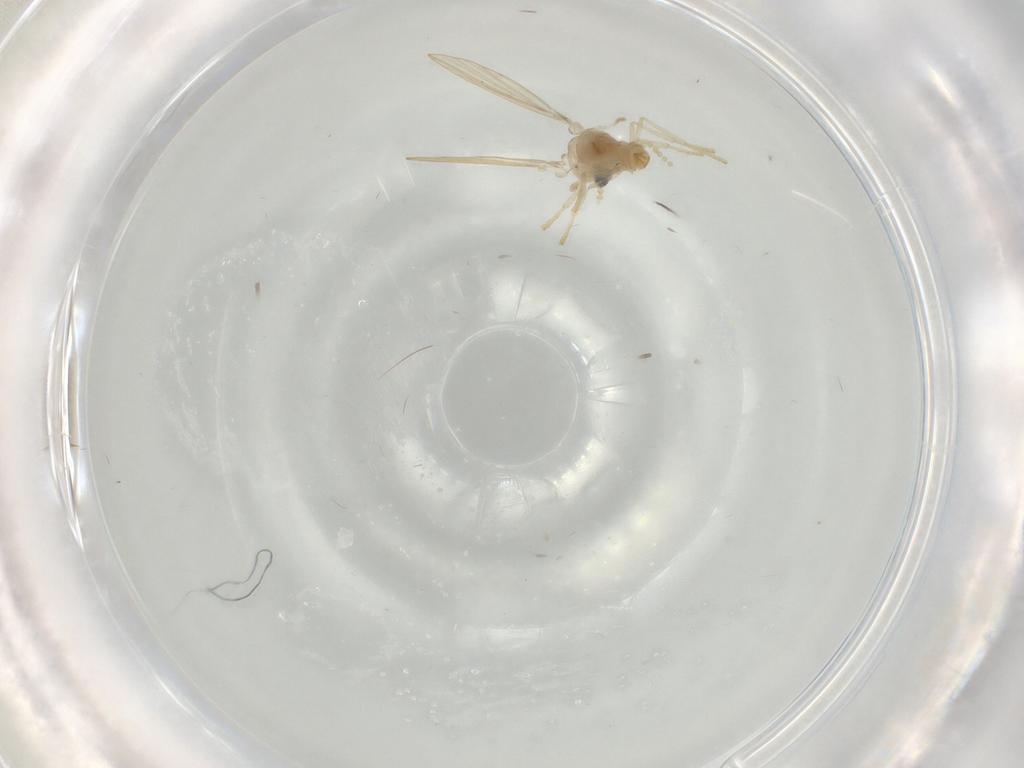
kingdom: Animalia
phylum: Arthropoda
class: Insecta
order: Diptera
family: Psychodidae
